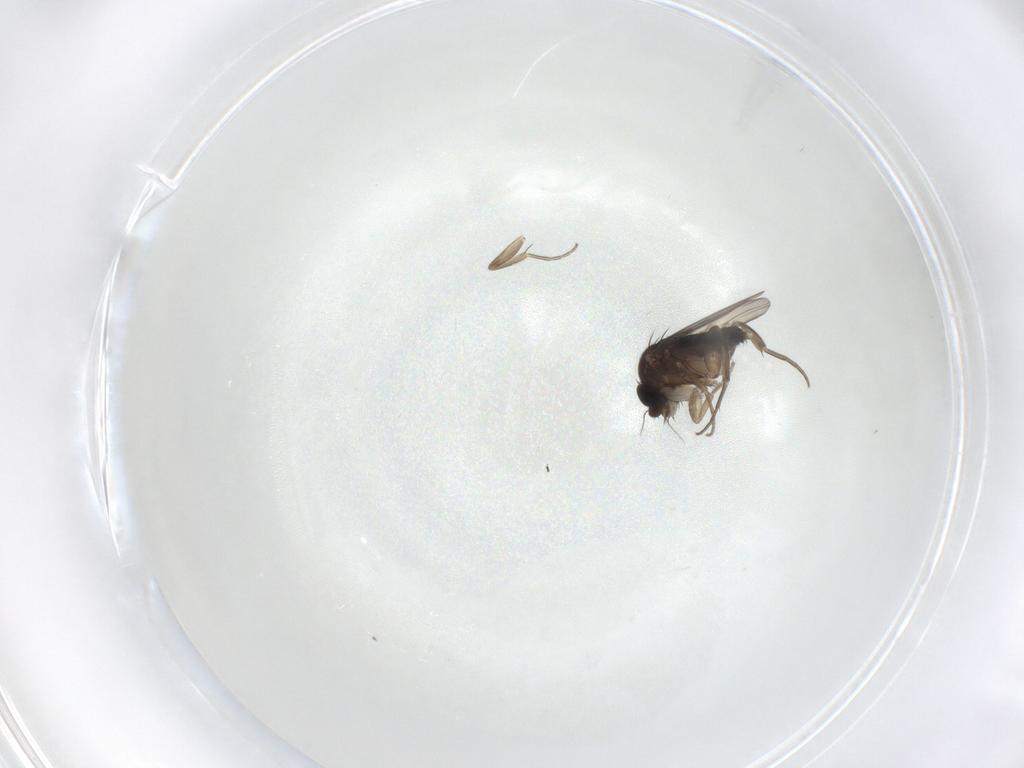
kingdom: Animalia
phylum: Arthropoda
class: Insecta
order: Diptera
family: Phoridae
